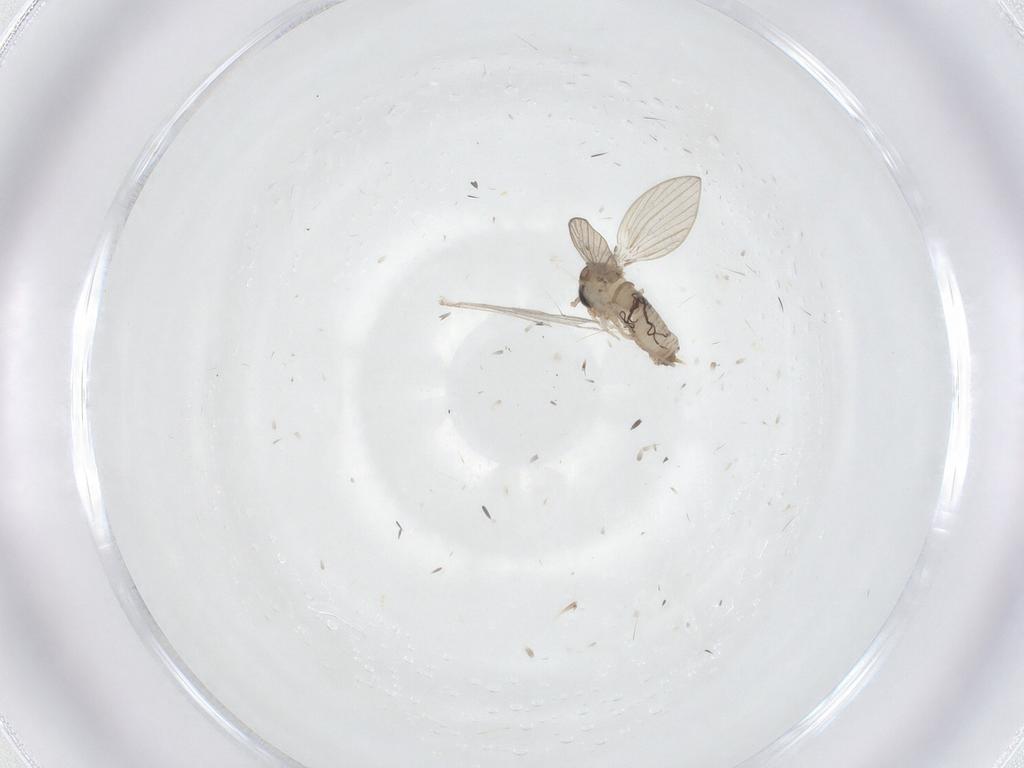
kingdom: Animalia
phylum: Arthropoda
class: Insecta
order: Diptera
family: Psychodidae
